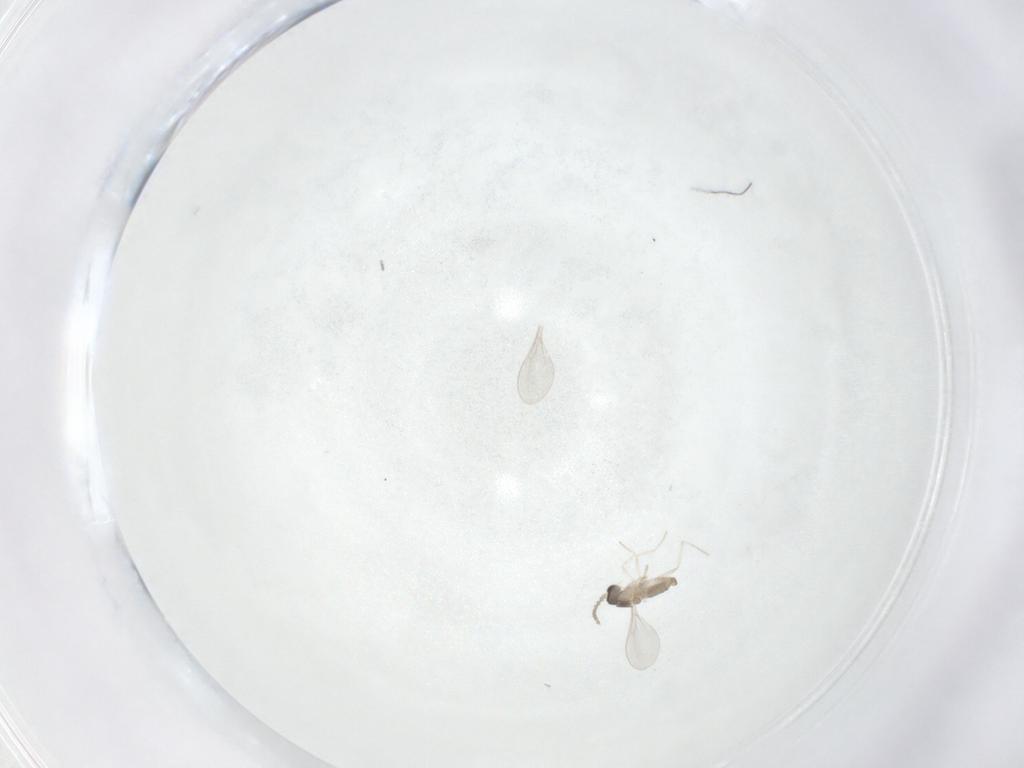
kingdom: Animalia
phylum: Arthropoda
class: Insecta
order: Diptera
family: Cecidomyiidae
